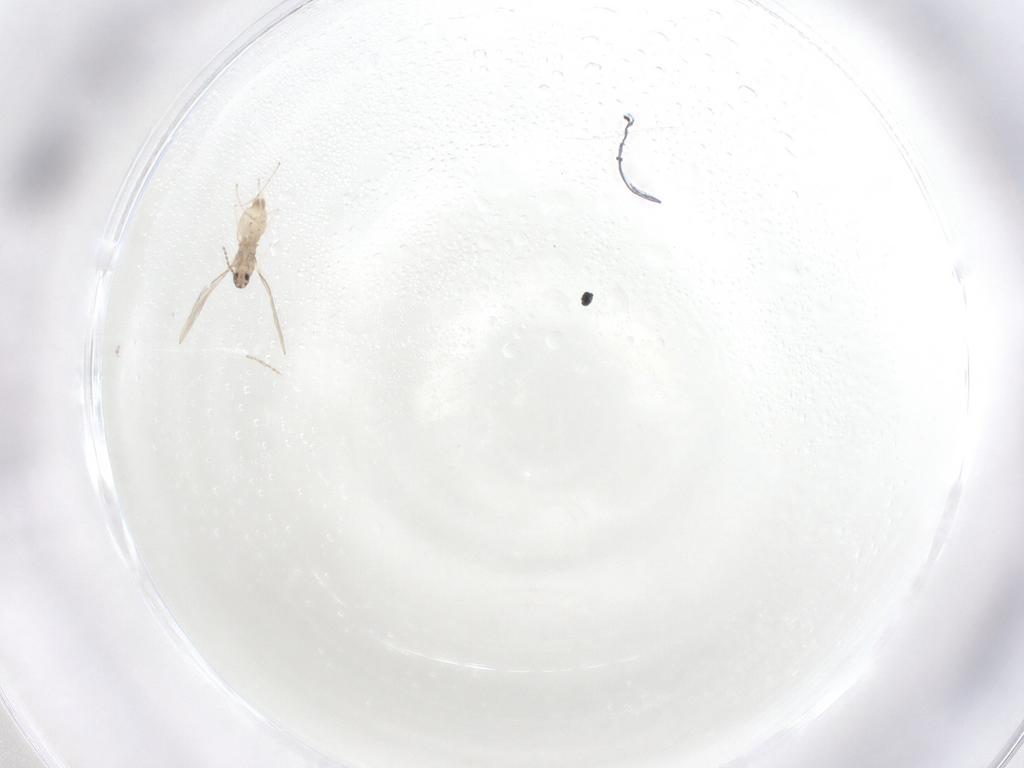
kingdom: Animalia
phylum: Arthropoda
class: Insecta
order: Diptera
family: Cecidomyiidae
